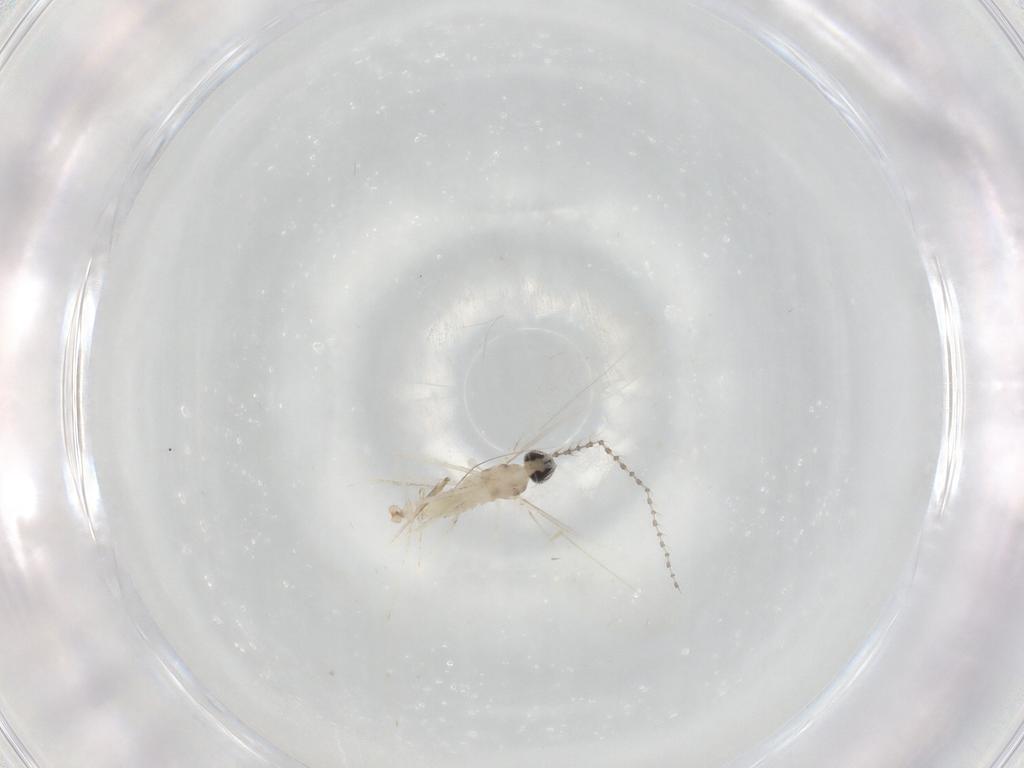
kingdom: Animalia
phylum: Arthropoda
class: Insecta
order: Diptera
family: Cecidomyiidae
